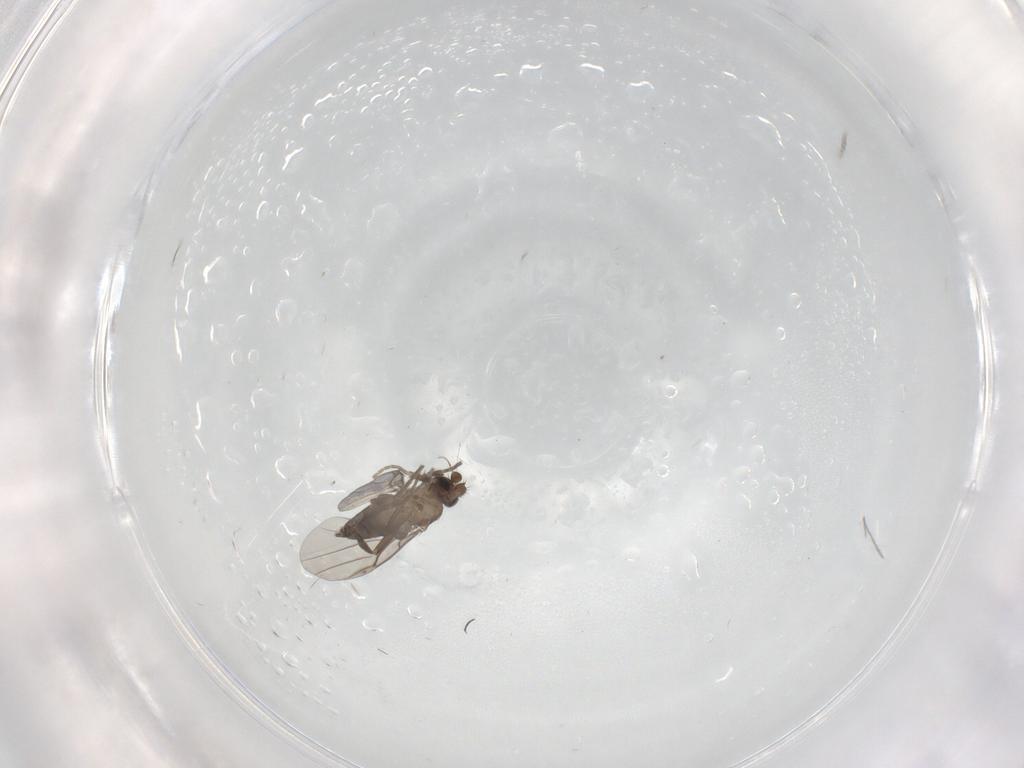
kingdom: Animalia
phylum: Arthropoda
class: Insecta
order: Diptera
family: Phoridae
